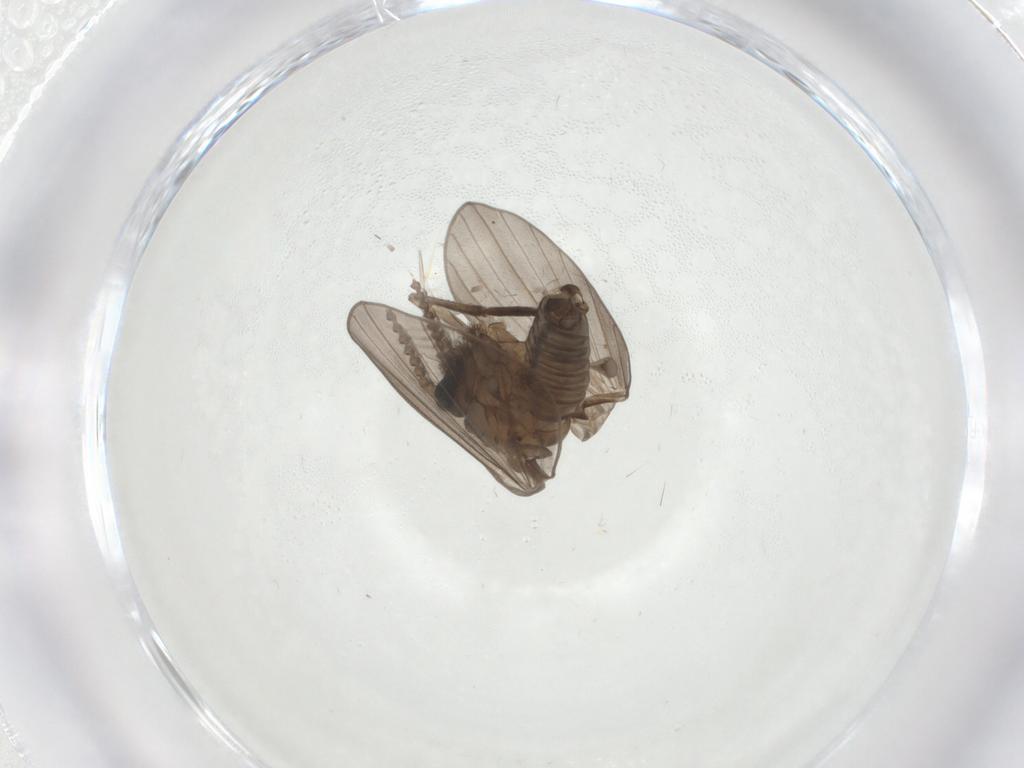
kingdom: Animalia
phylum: Arthropoda
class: Insecta
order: Diptera
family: Psychodidae
